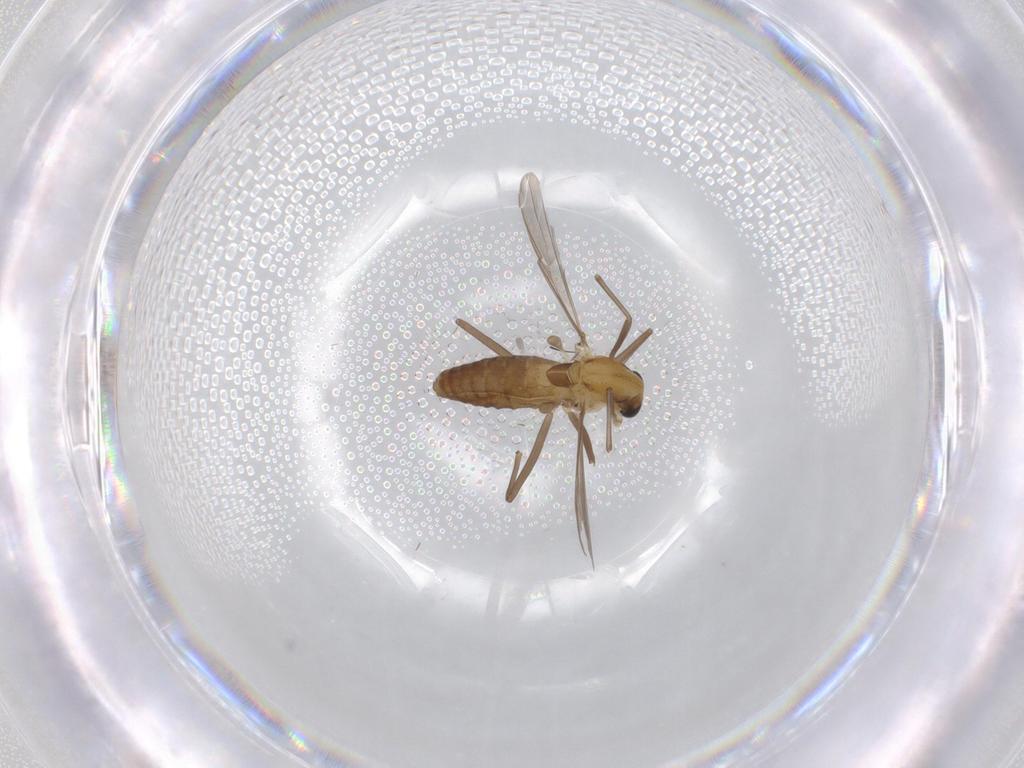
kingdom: Animalia
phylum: Arthropoda
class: Insecta
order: Diptera
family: Chironomidae
